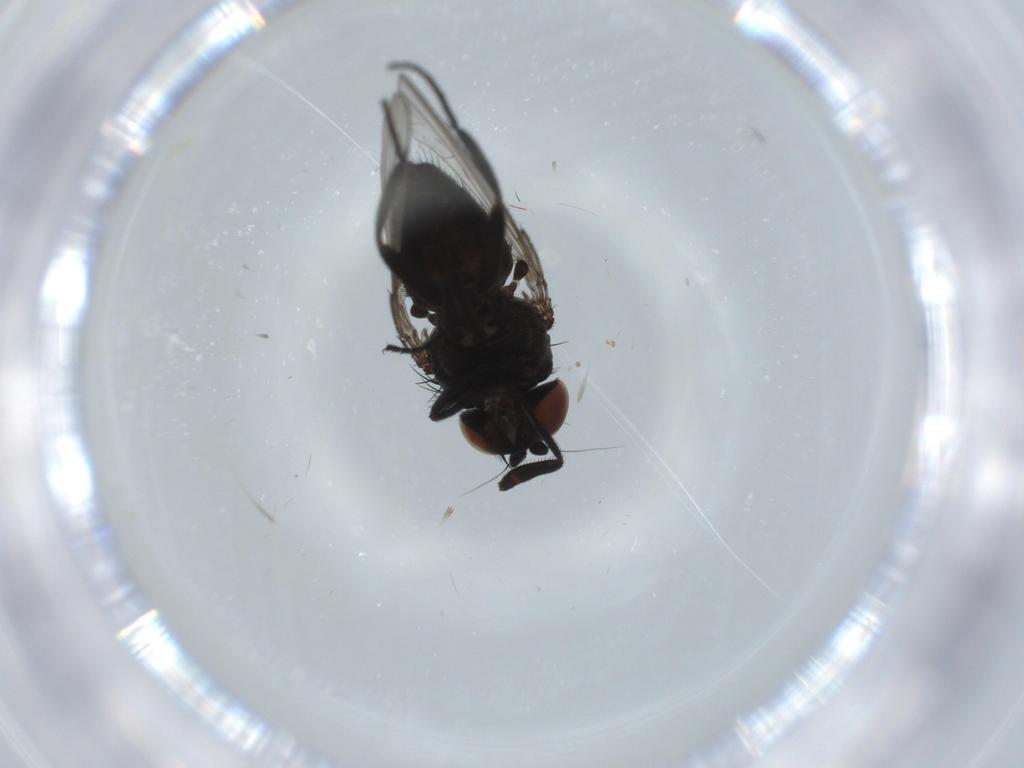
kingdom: Animalia
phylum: Arthropoda
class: Insecta
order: Diptera
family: Sciaridae
